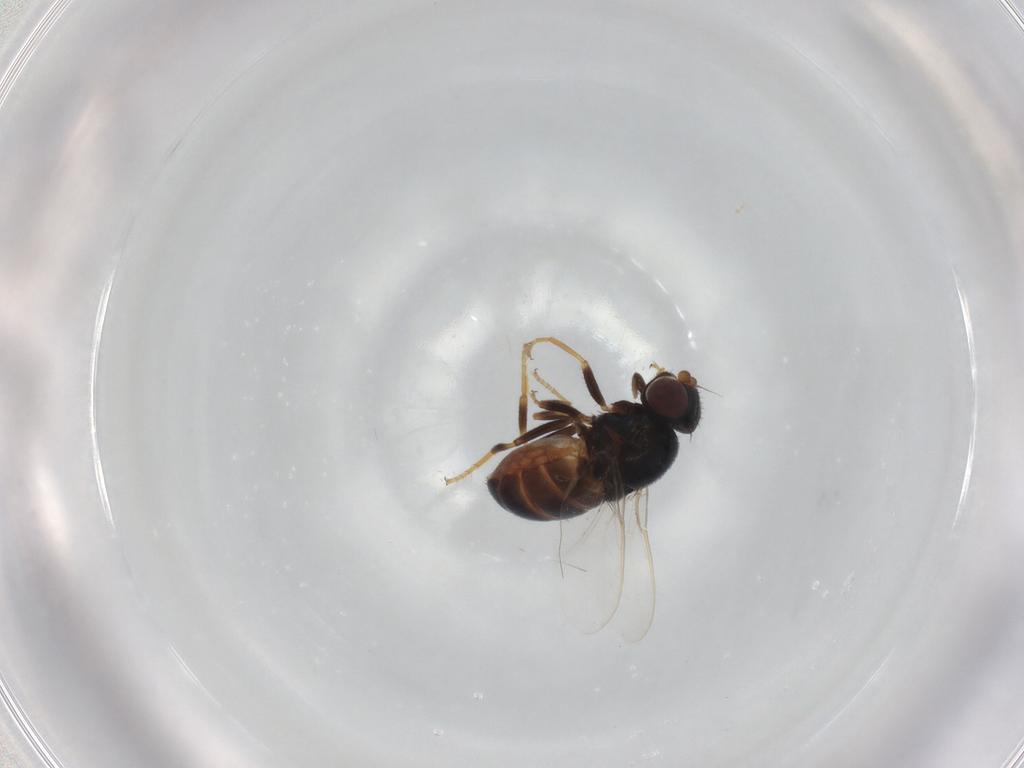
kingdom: Animalia
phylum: Arthropoda
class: Insecta
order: Diptera
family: Chloropidae
